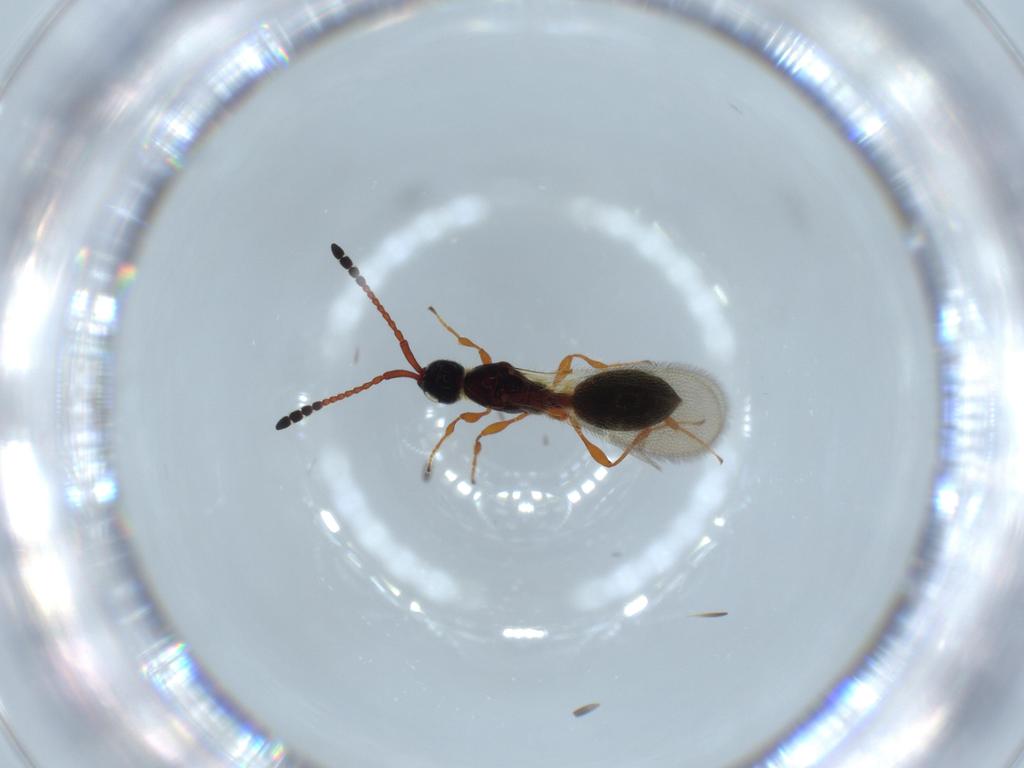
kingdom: Animalia
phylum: Arthropoda
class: Insecta
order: Hymenoptera
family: Diapriidae
